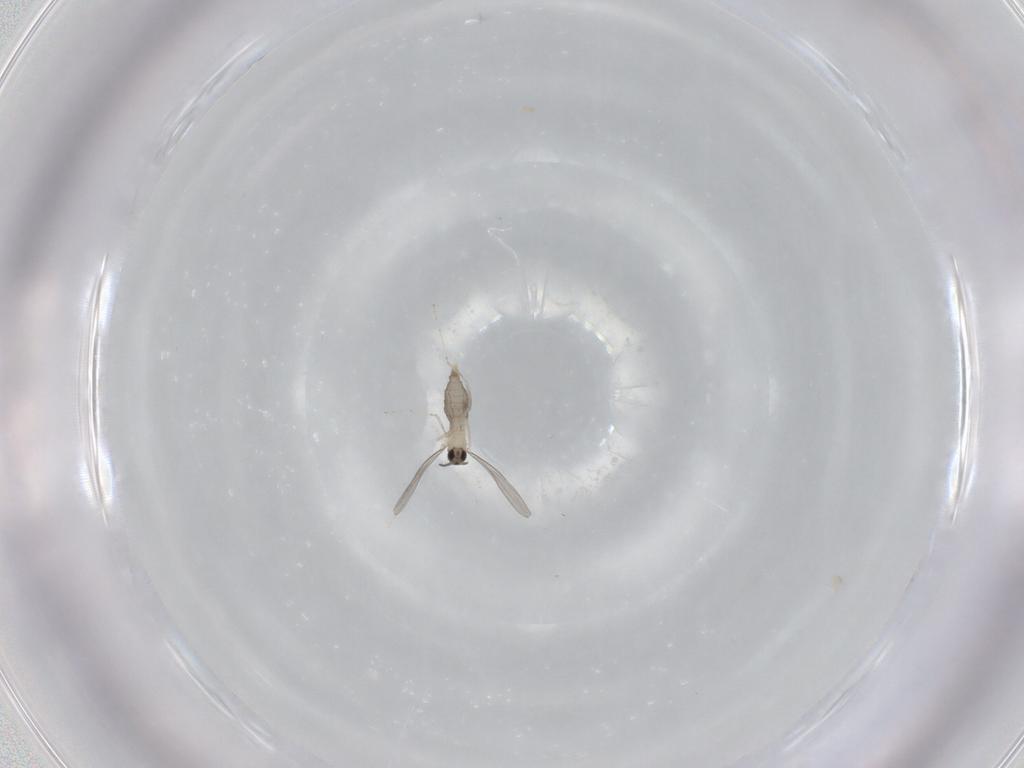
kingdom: Animalia
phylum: Arthropoda
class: Insecta
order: Diptera
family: Cecidomyiidae
